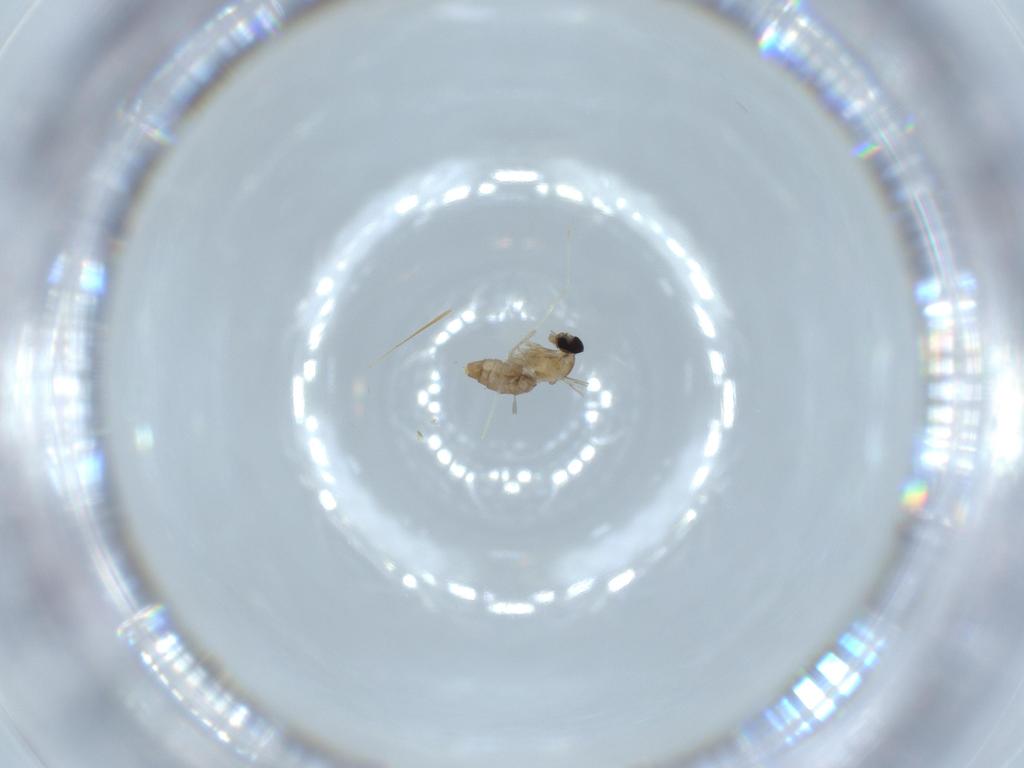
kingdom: Animalia
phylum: Arthropoda
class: Insecta
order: Diptera
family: Cecidomyiidae
